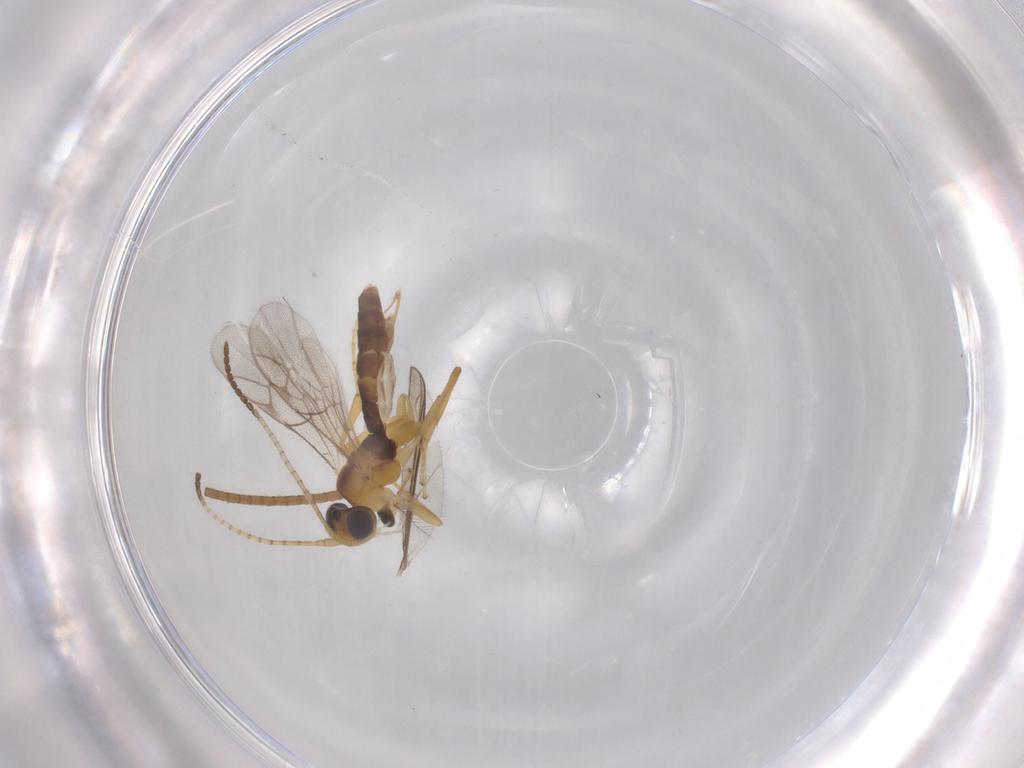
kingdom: Animalia
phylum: Arthropoda
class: Insecta
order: Hymenoptera
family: Ichneumonidae
